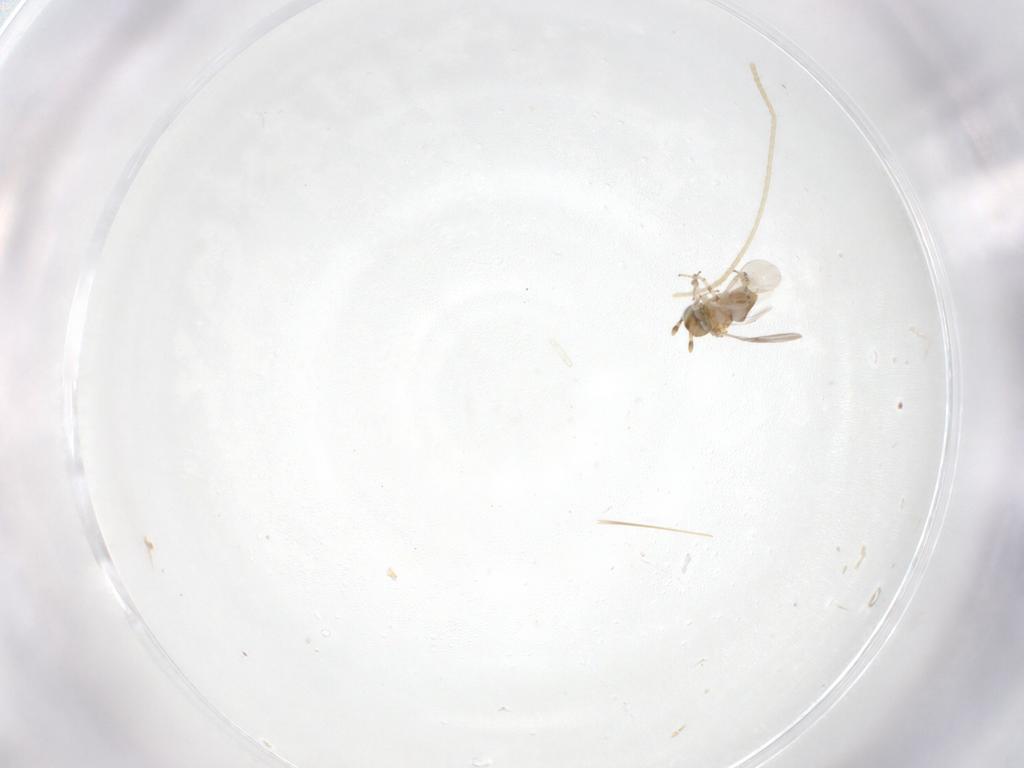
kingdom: Animalia
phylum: Arthropoda
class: Insecta
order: Lepidoptera
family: Lecithoceridae
